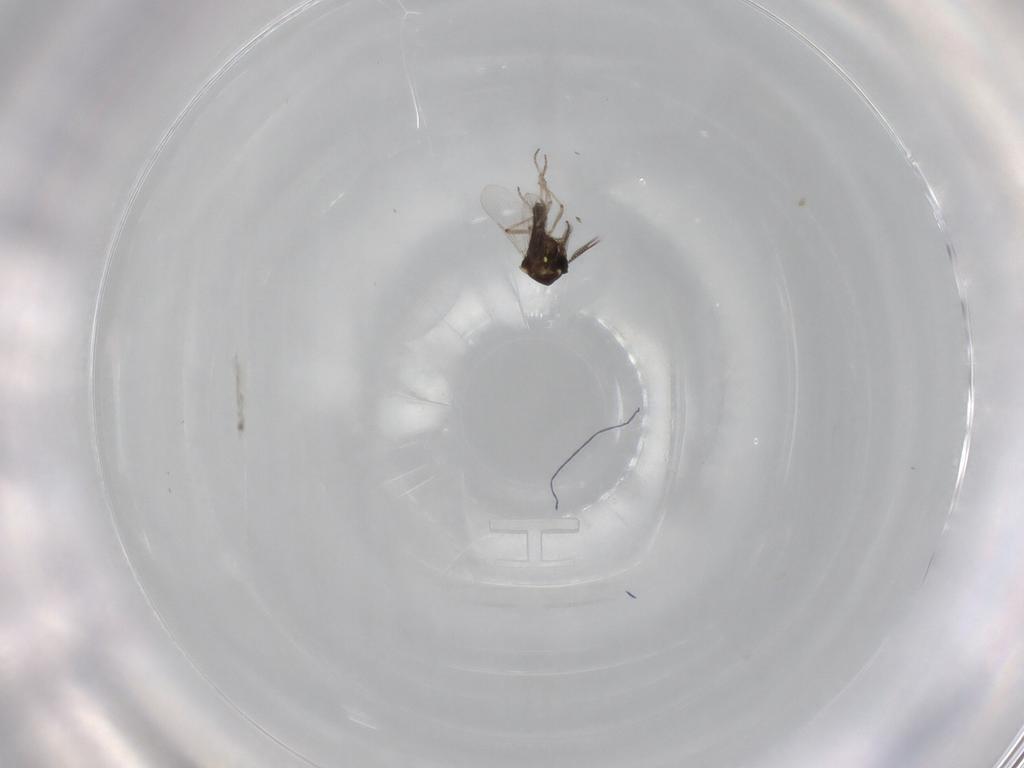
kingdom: Animalia
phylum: Arthropoda
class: Insecta
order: Diptera
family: Ceratopogonidae
